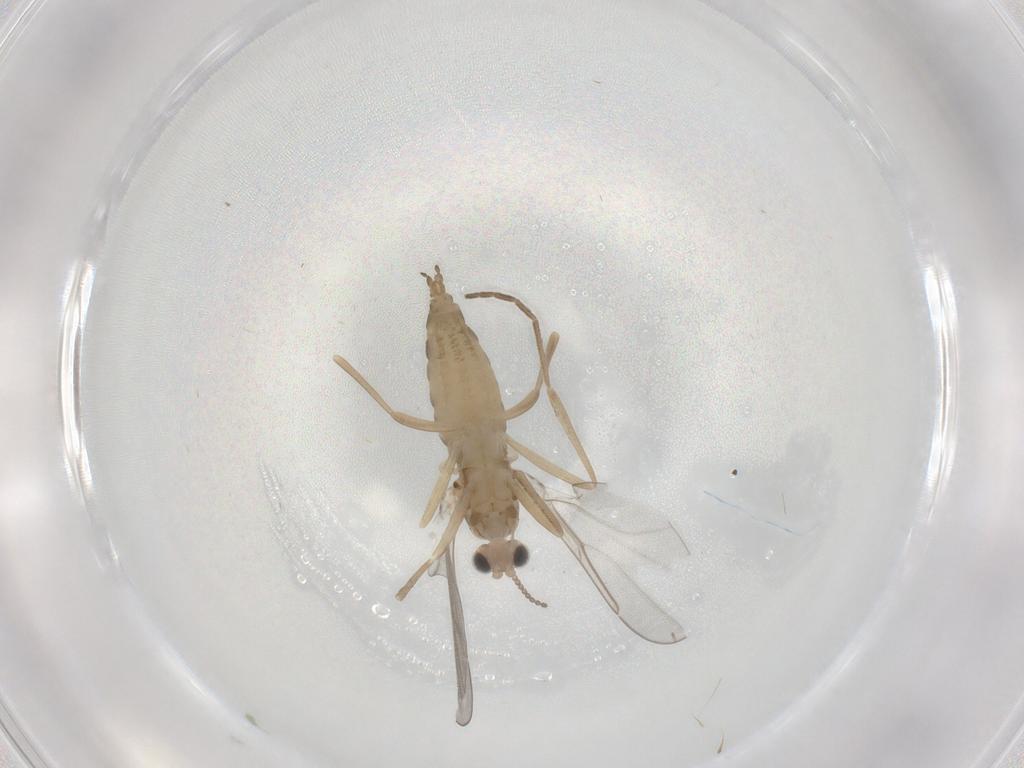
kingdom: Animalia
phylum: Arthropoda
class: Insecta
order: Diptera
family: Cecidomyiidae
